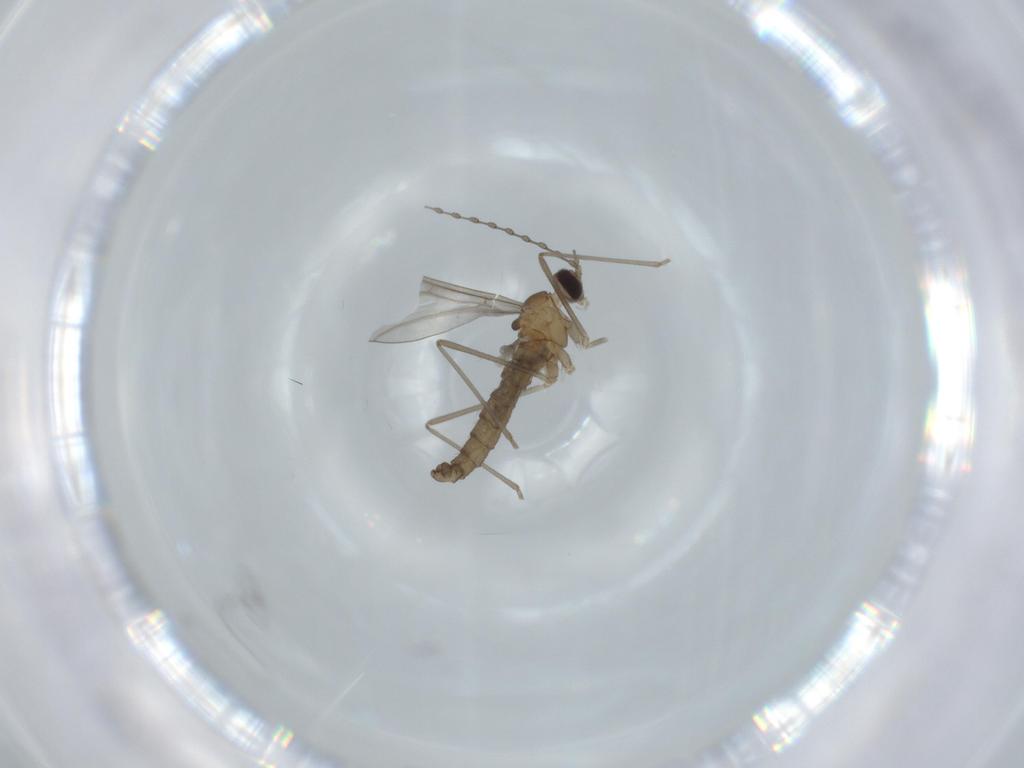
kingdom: Animalia
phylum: Arthropoda
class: Insecta
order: Diptera
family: Cecidomyiidae
